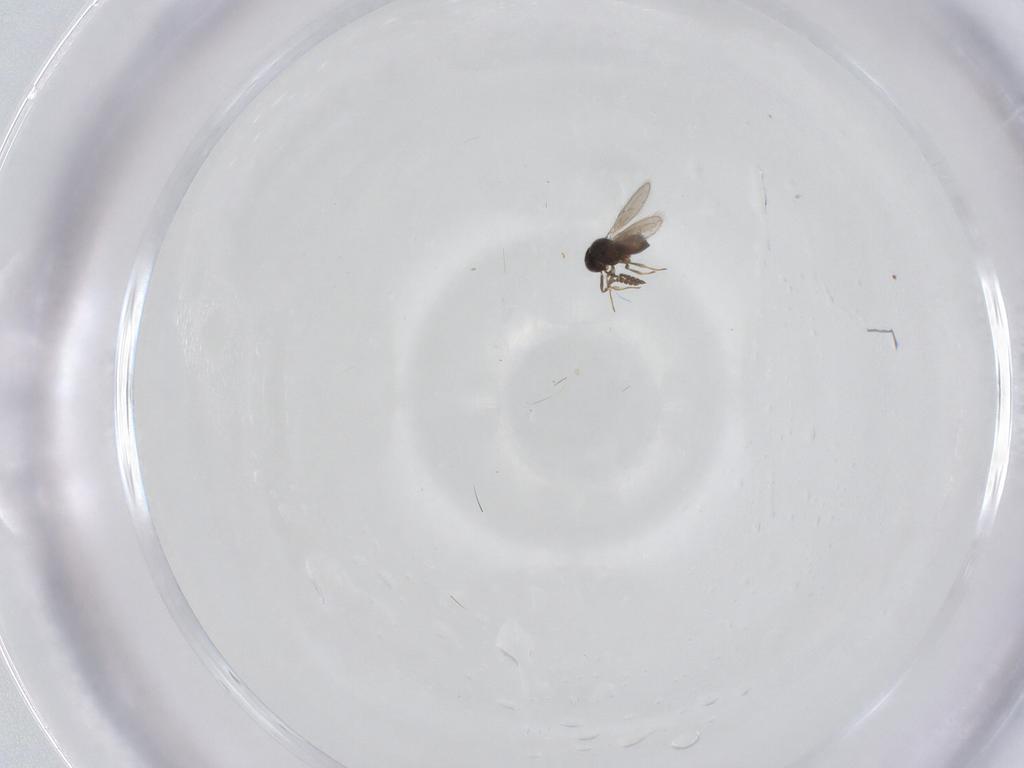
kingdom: Animalia
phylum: Arthropoda
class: Insecta
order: Hymenoptera
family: Scelionidae
